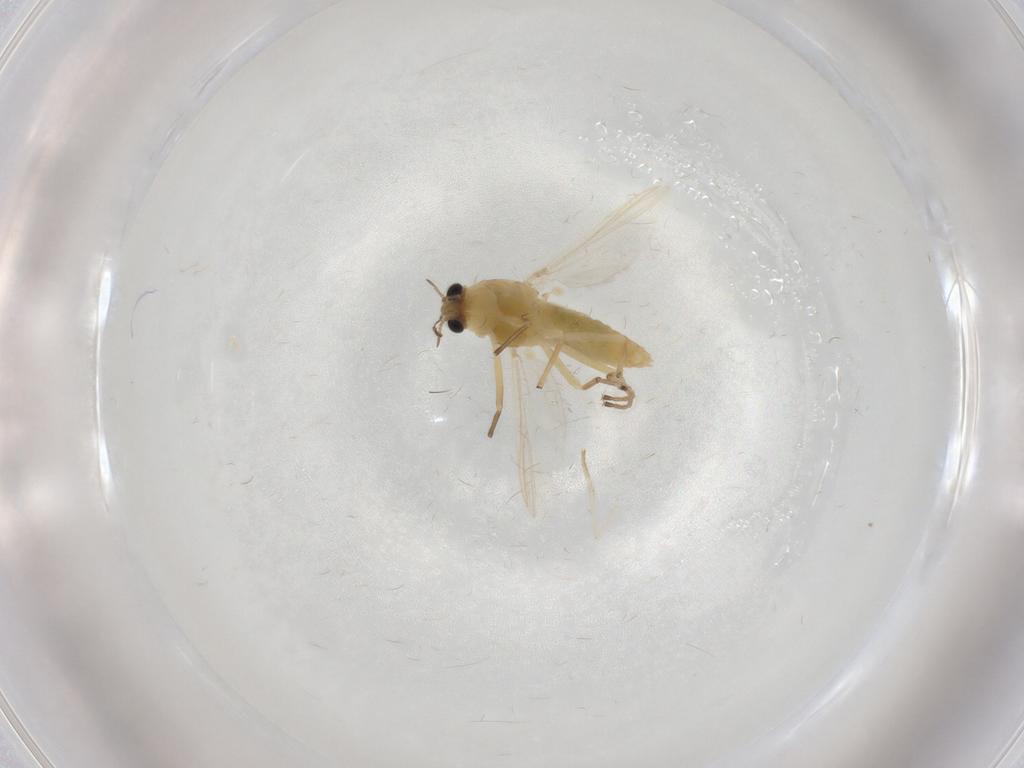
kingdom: Animalia
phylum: Arthropoda
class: Insecta
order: Diptera
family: Chironomidae
